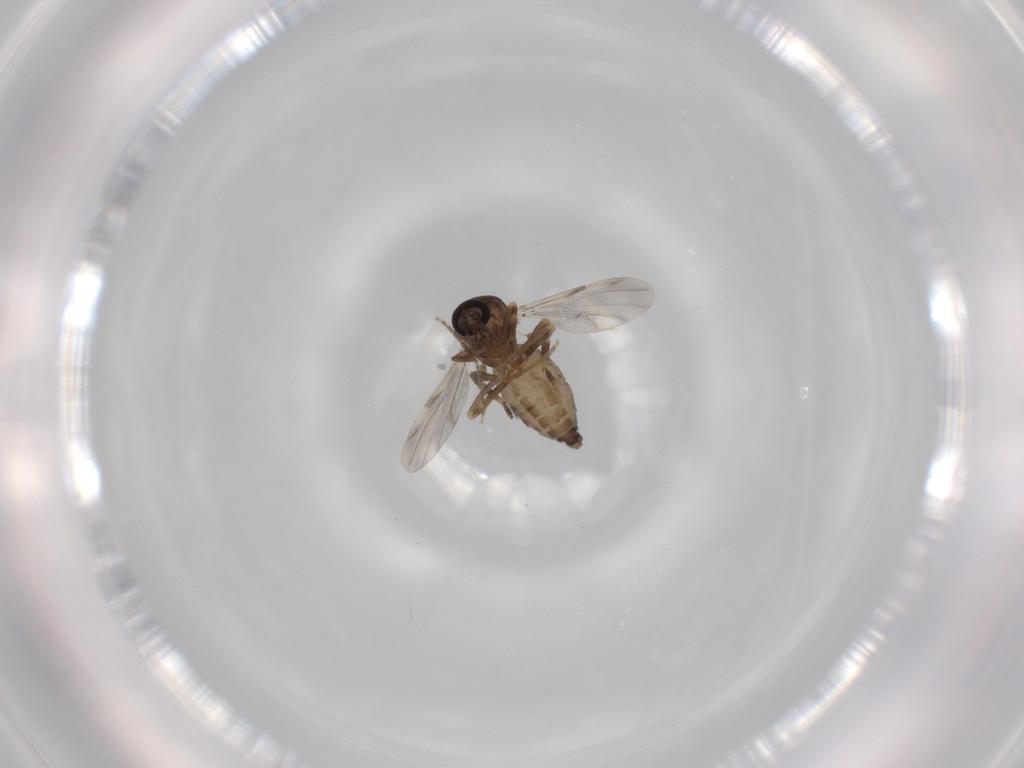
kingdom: Animalia
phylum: Arthropoda
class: Insecta
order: Diptera
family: Ceratopogonidae
